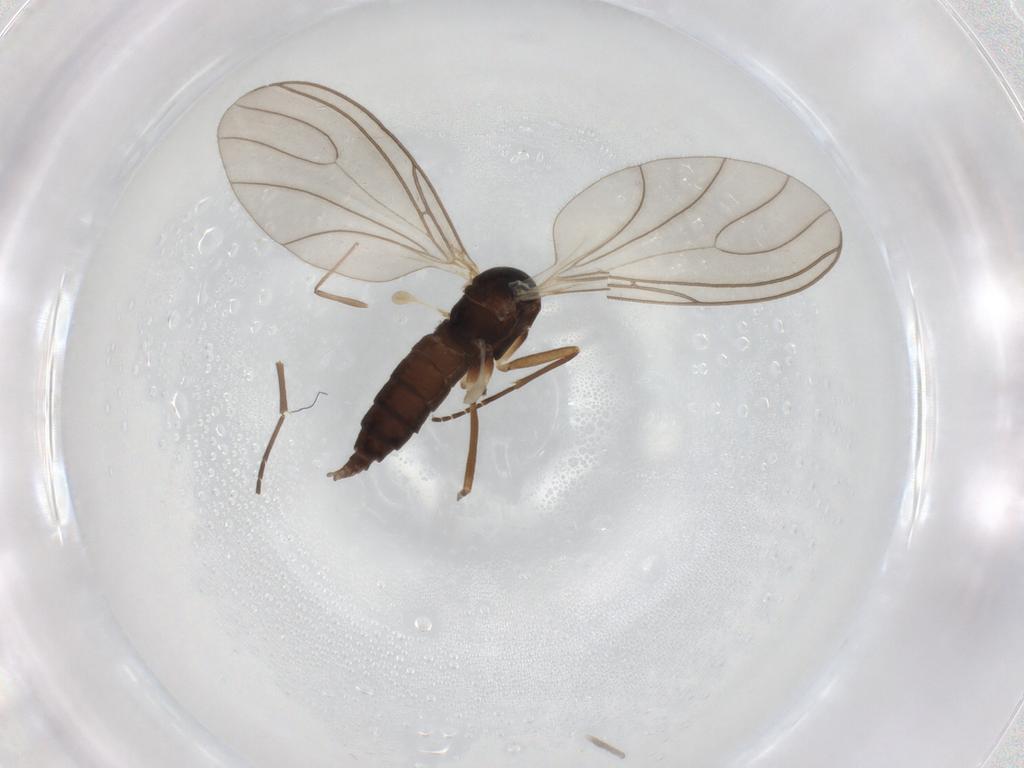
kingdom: Animalia
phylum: Arthropoda
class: Insecta
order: Diptera
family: Sciaridae
